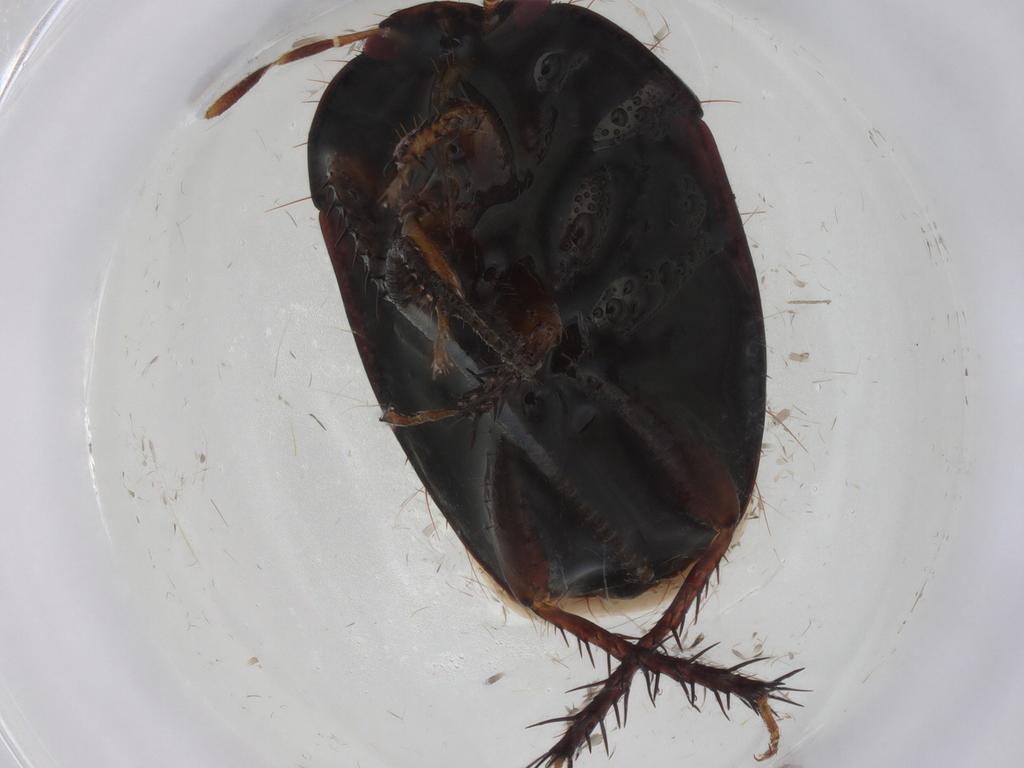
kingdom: Animalia
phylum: Arthropoda
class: Insecta
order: Hemiptera
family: Cydnidae
